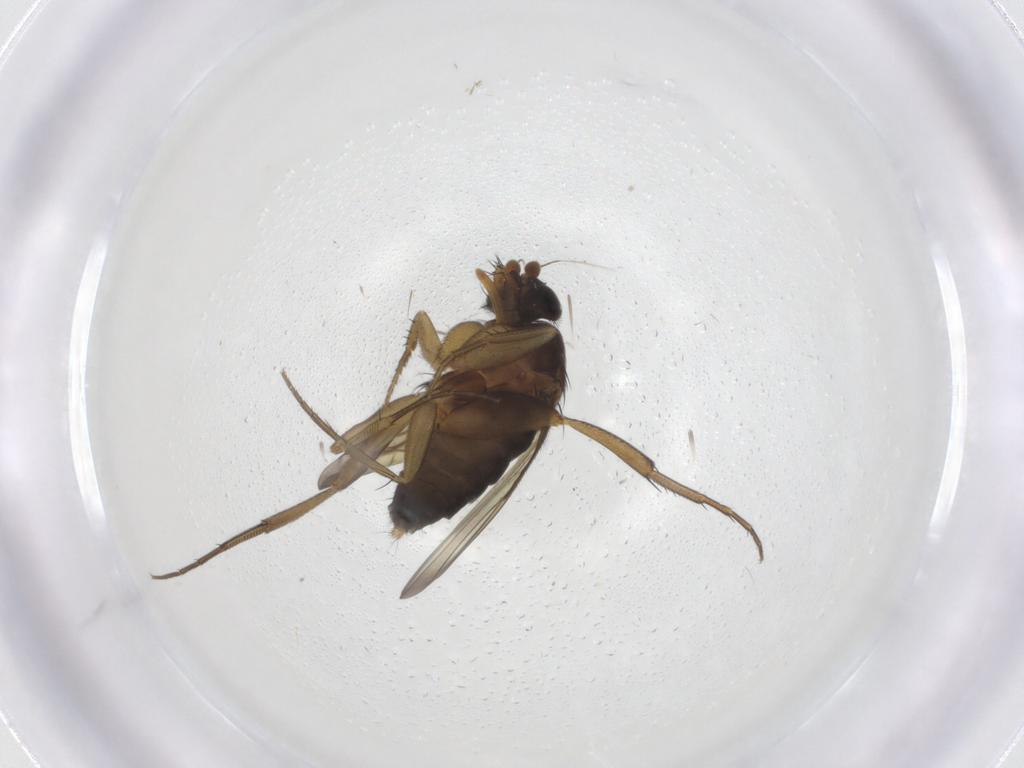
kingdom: Animalia
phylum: Arthropoda
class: Insecta
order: Diptera
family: Phoridae
